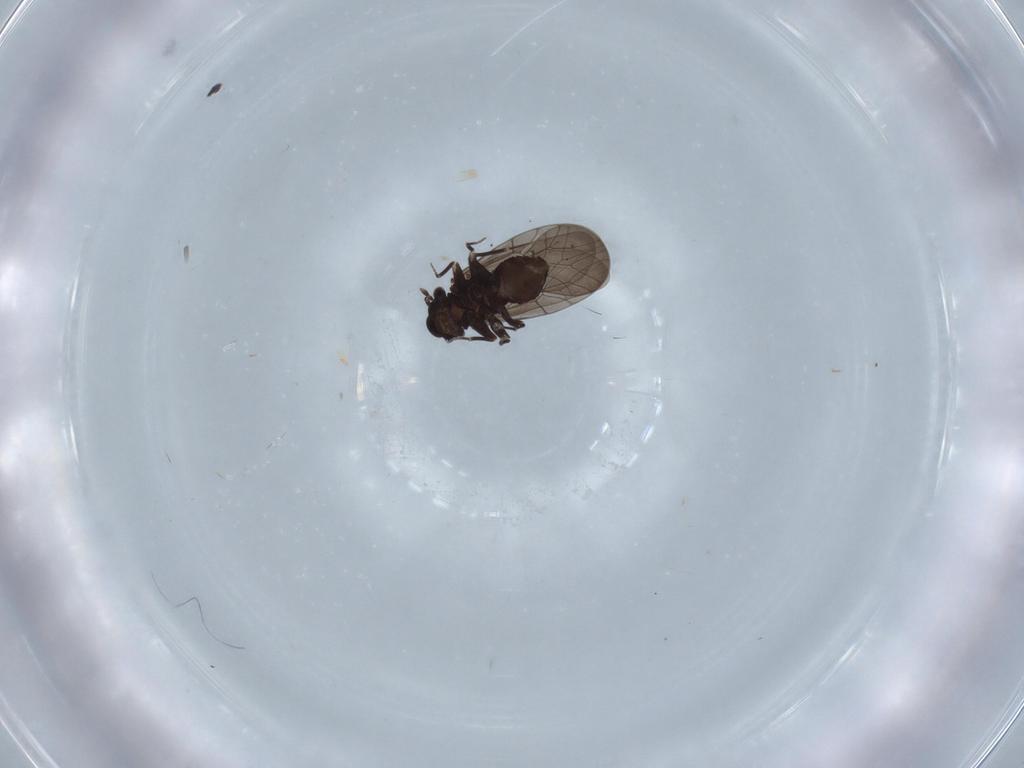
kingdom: Animalia
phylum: Arthropoda
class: Insecta
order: Psocodea
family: Lepidopsocidae
